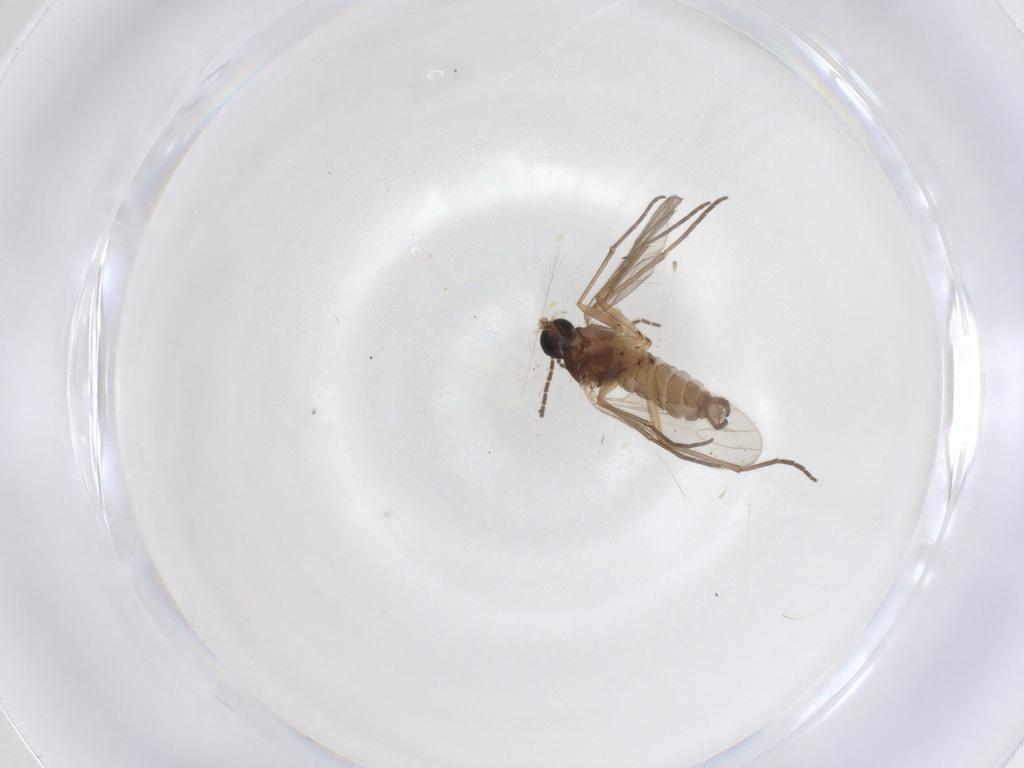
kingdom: Animalia
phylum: Arthropoda
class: Insecta
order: Diptera
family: Sciaridae
